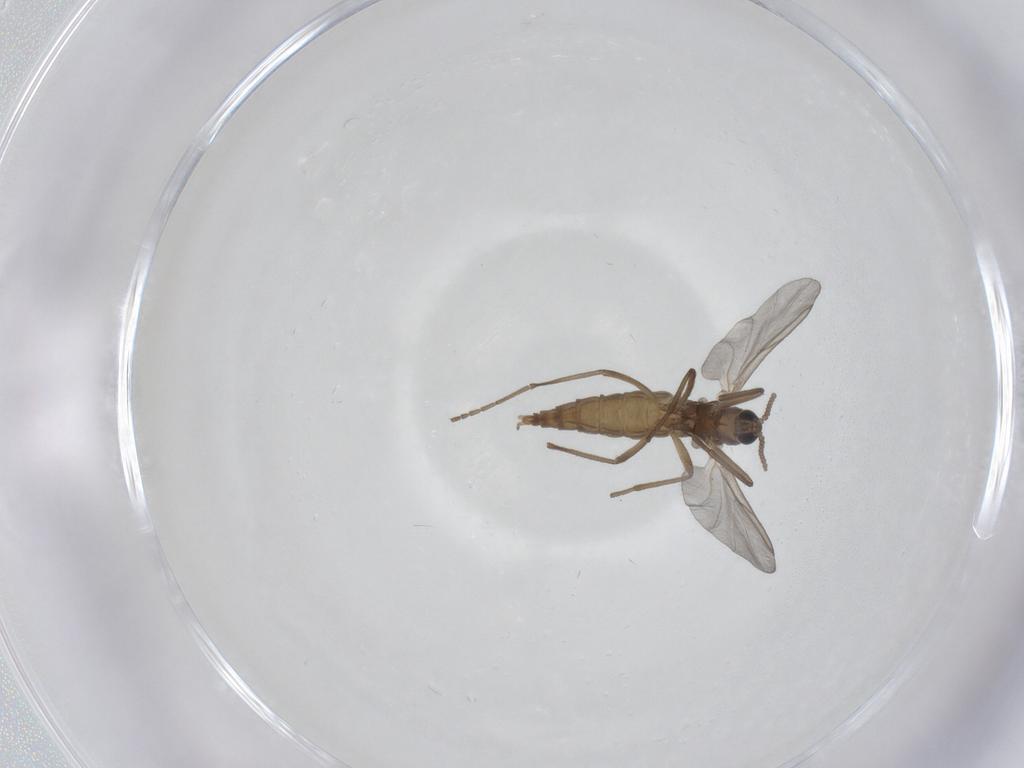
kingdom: Animalia
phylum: Arthropoda
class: Insecta
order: Diptera
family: Cecidomyiidae
